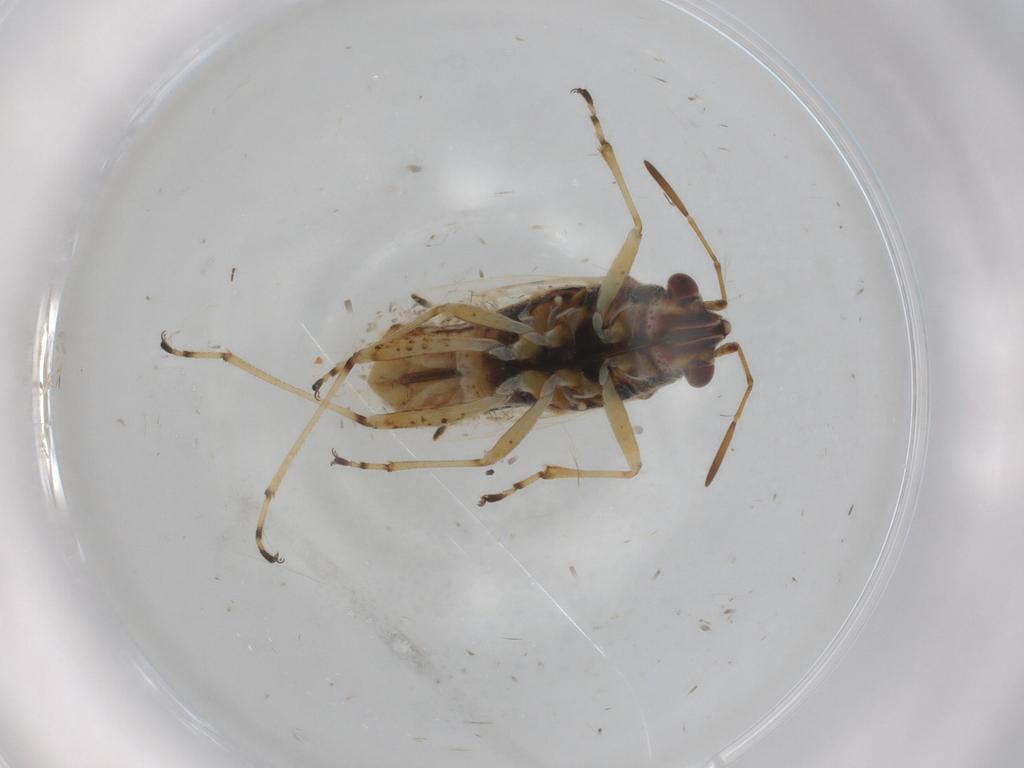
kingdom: Animalia
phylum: Arthropoda
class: Insecta
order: Hemiptera
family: Lygaeidae
